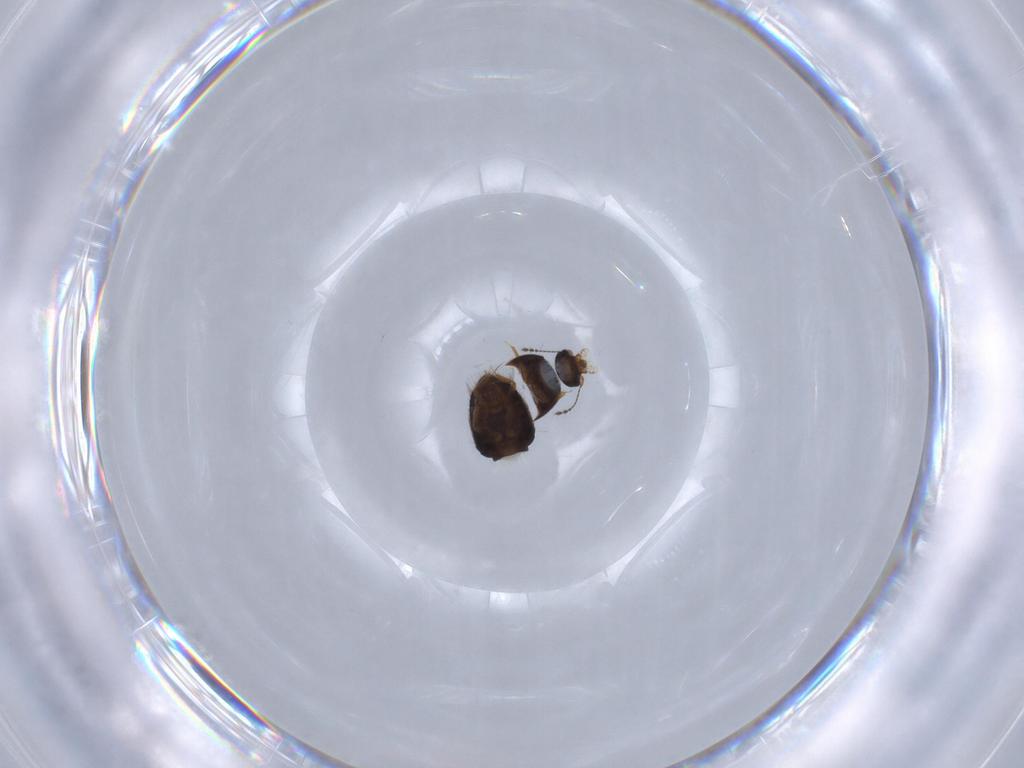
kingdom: Animalia
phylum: Arthropoda
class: Insecta
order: Coleoptera
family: Ptiliidae
